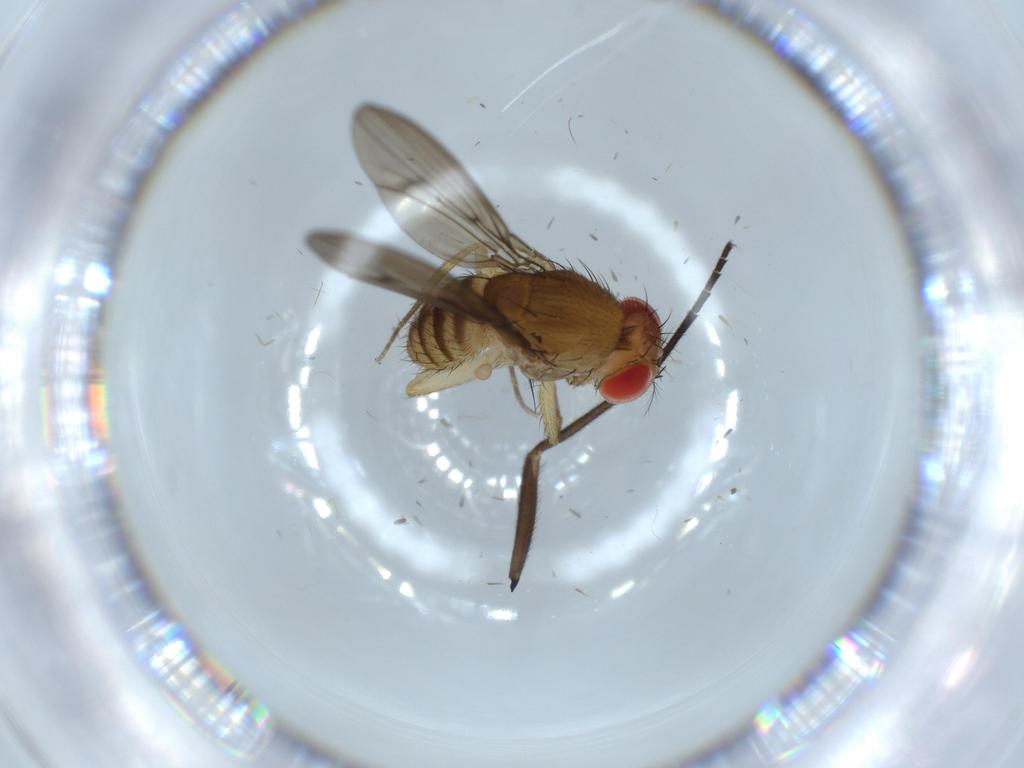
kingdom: Animalia
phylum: Arthropoda
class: Insecta
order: Diptera
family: Drosophilidae
